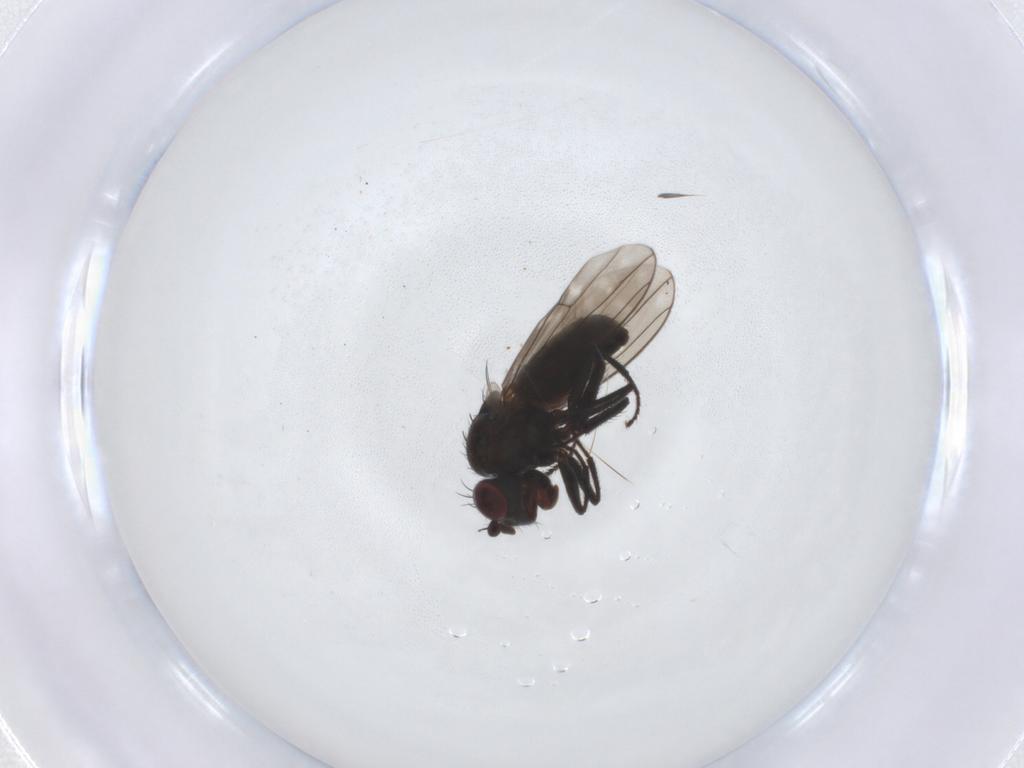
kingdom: Animalia
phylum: Arthropoda
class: Insecta
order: Diptera
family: Ephydridae
